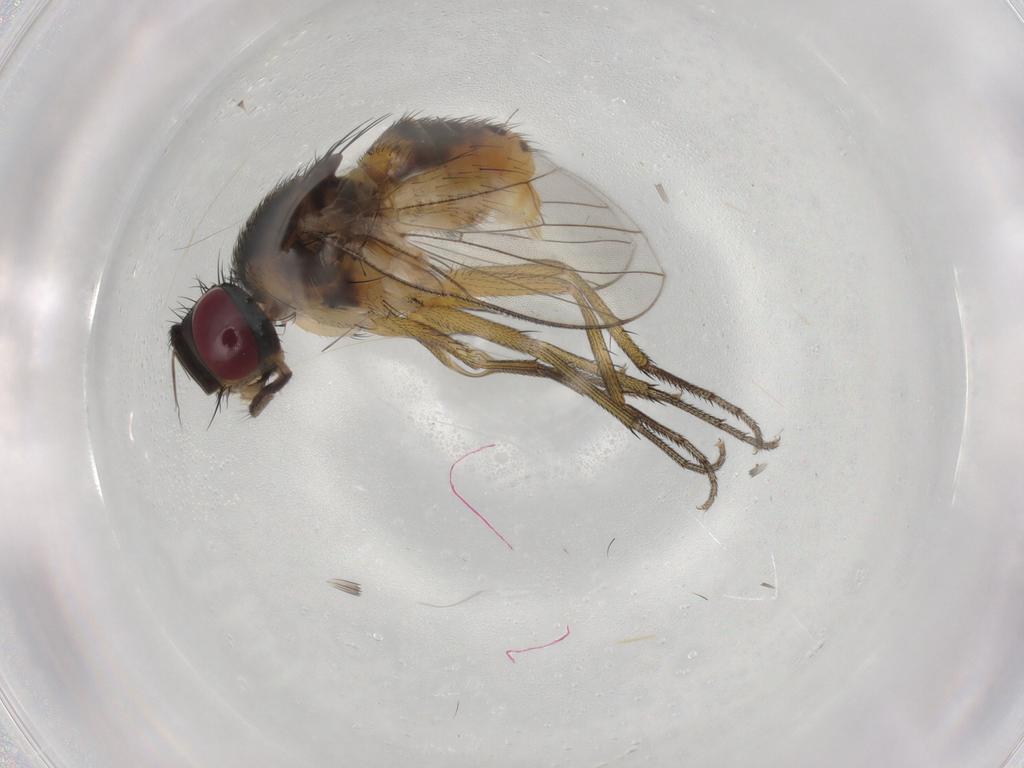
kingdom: Animalia
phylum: Arthropoda
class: Insecta
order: Diptera
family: Muscidae
